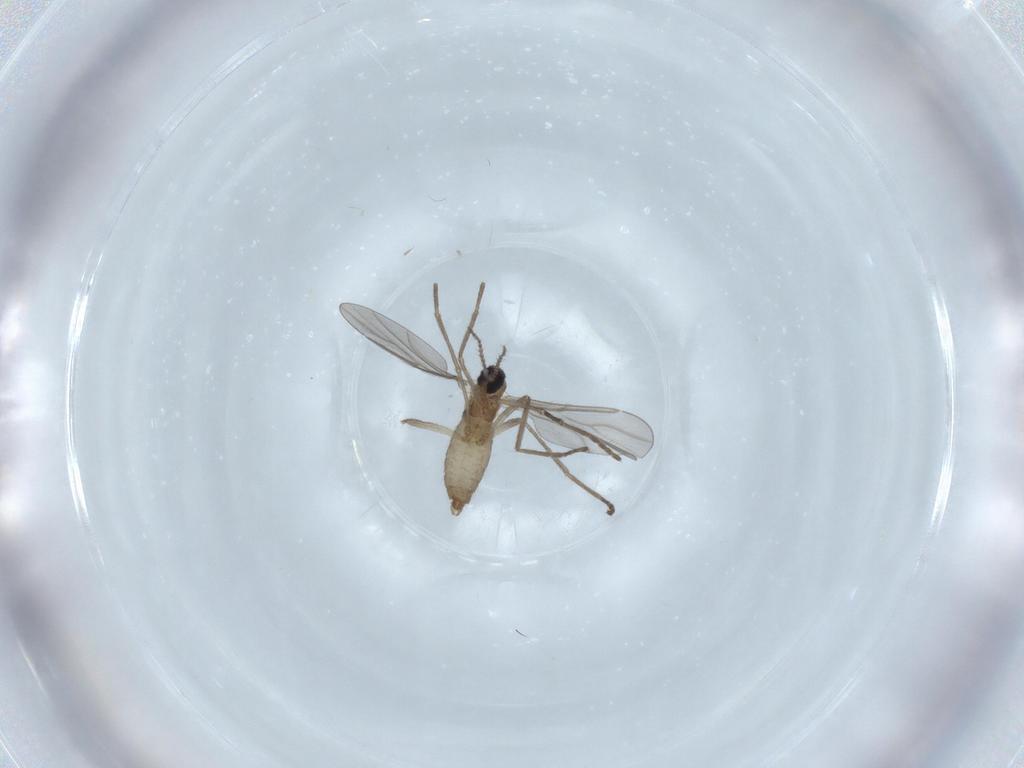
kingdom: Animalia
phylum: Arthropoda
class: Insecta
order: Diptera
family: Cecidomyiidae
